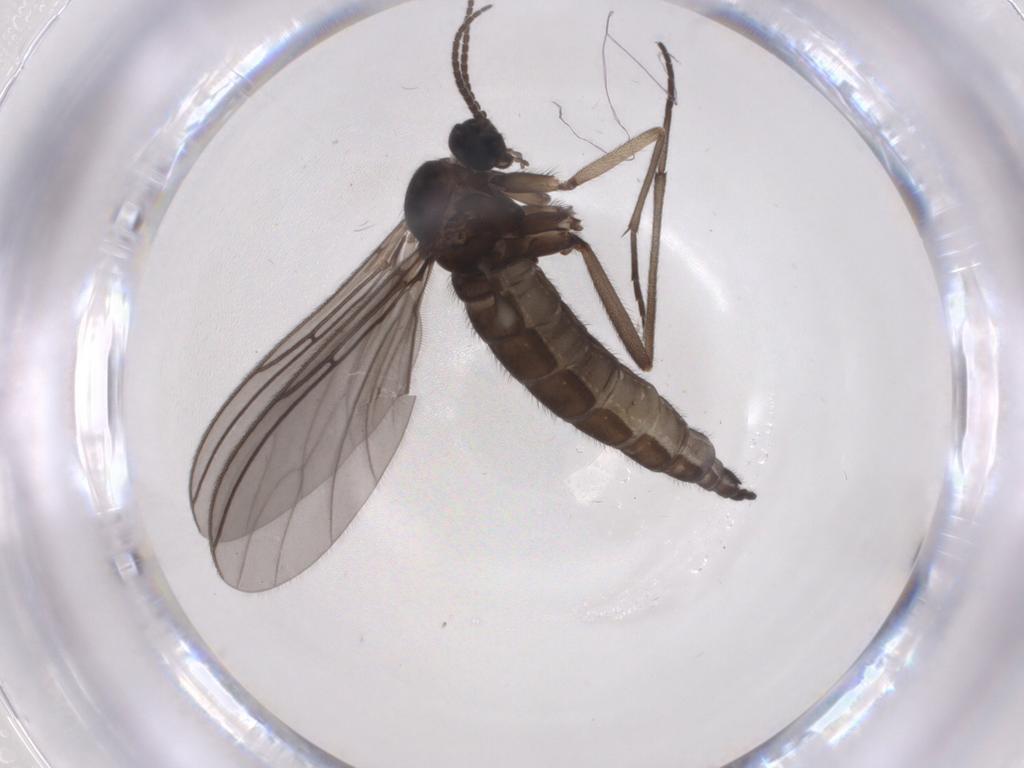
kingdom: Animalia
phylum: Arthropoda
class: Insecta
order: Diptera
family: Sciaridae
